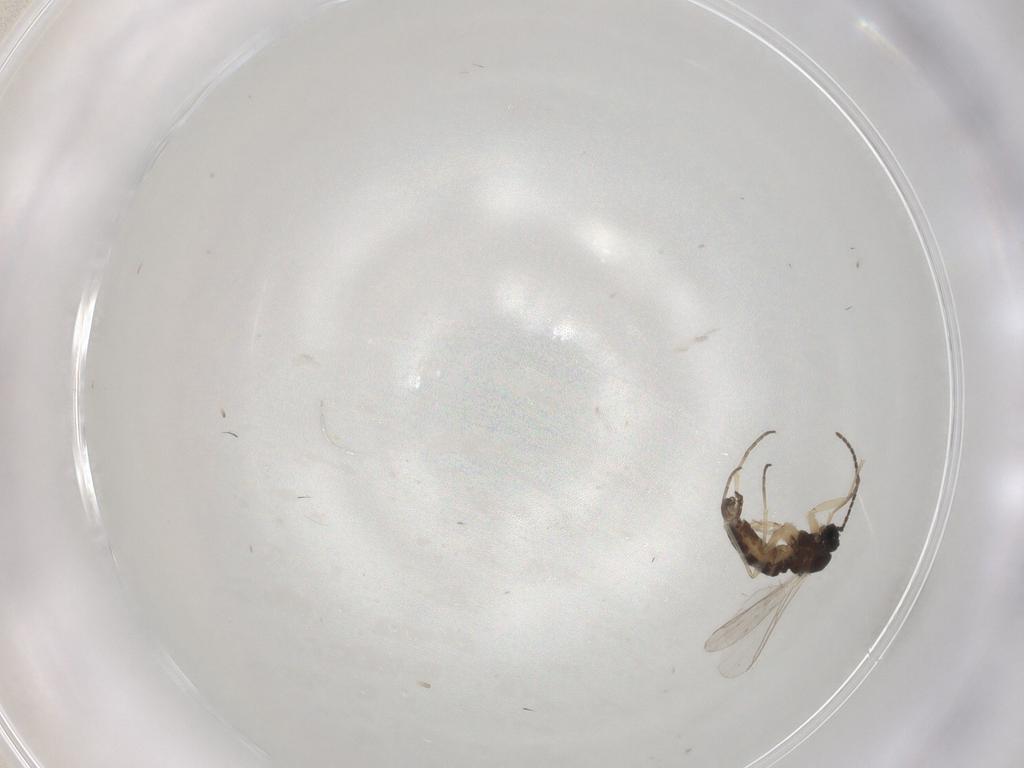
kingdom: Animalia
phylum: Arthropoda
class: Insecta
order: Diptera
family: Sciaridae
